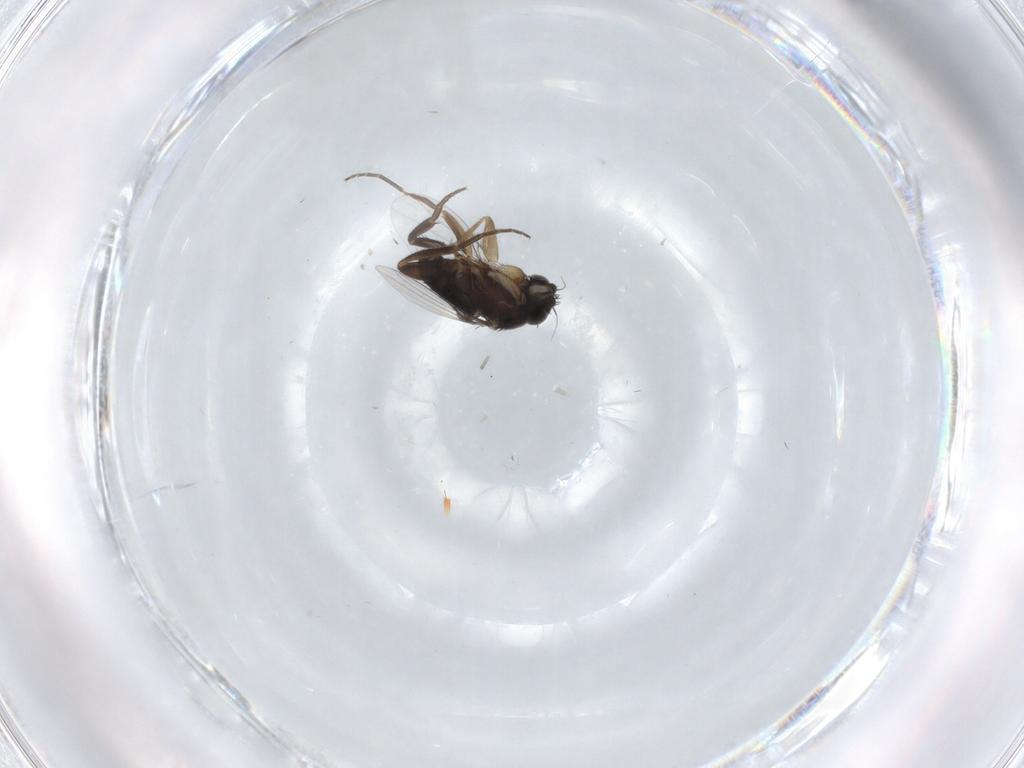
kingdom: Animalia
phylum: Arthropoda
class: Insecta
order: Diptera
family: Phoridae
